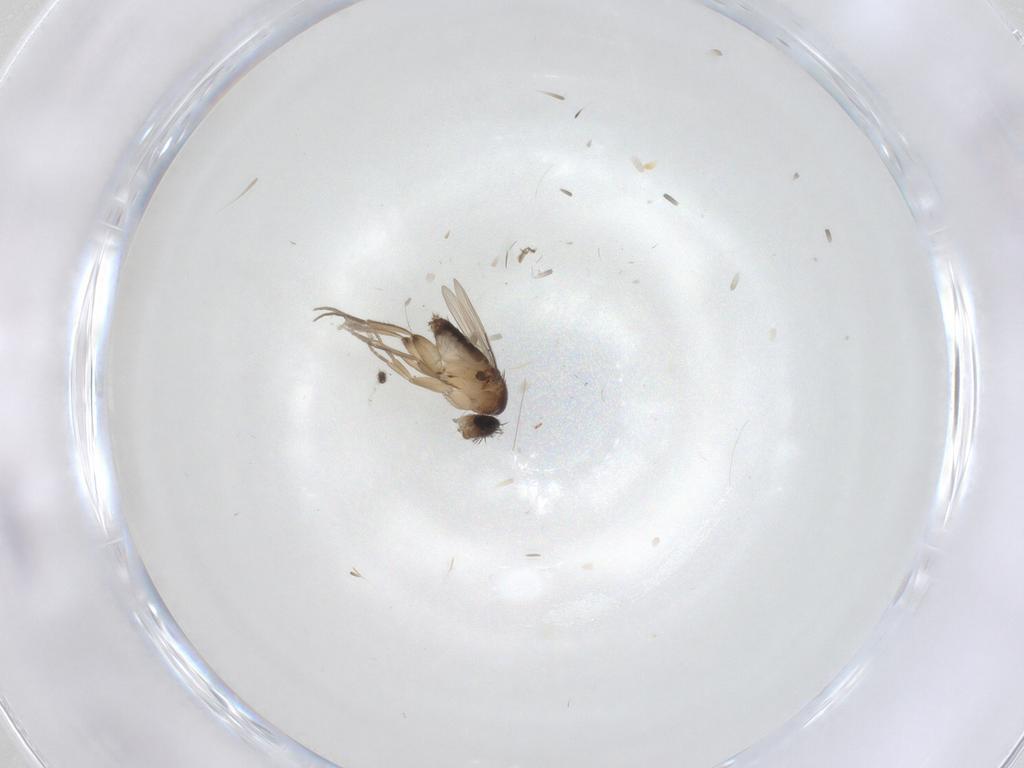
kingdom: Animalia
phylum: Arthropoda
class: Insecta
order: Diptera
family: Phoridae
